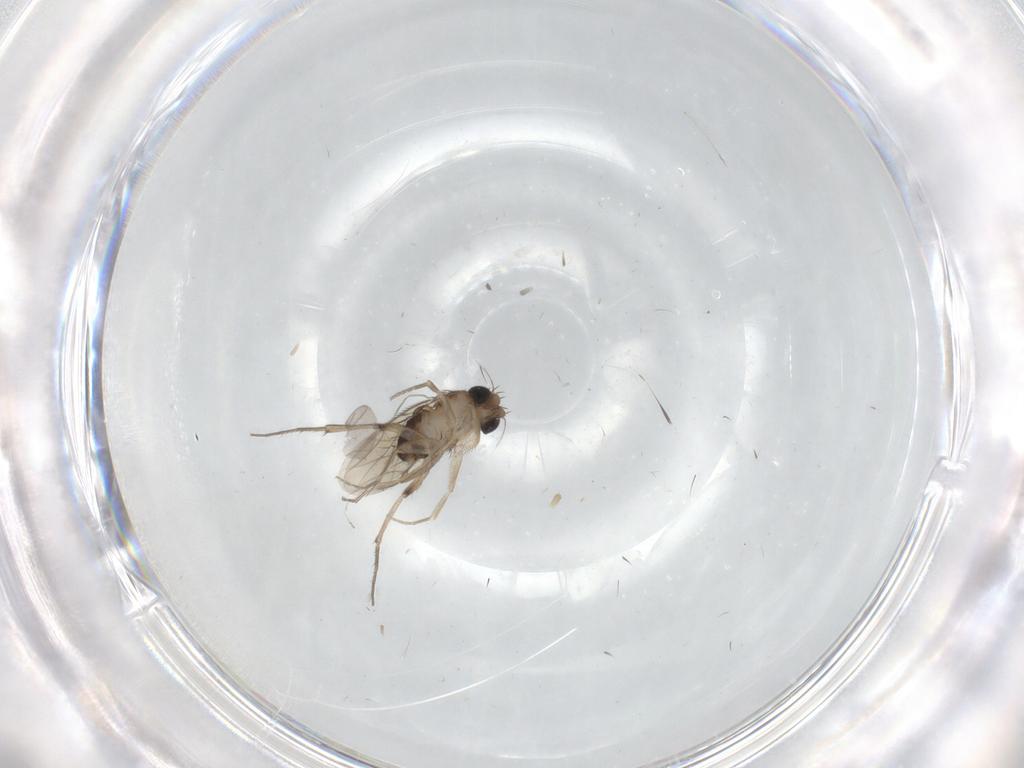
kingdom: Animalia
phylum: Arthropoda
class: Insecta
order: Diptera
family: Phoridae
